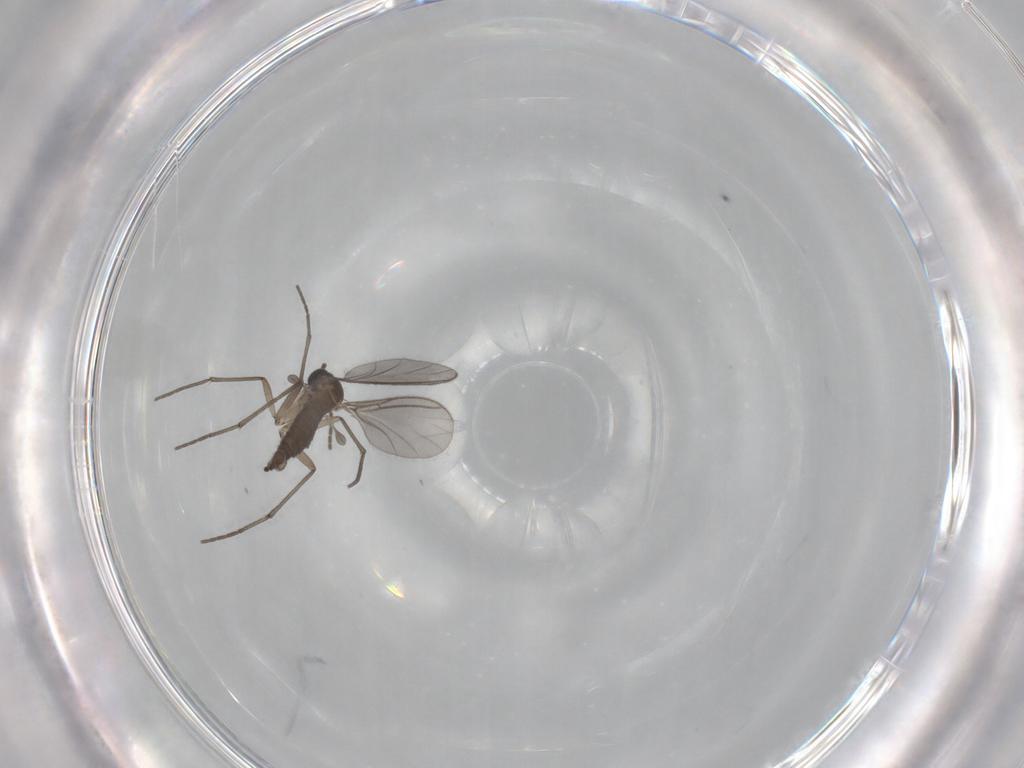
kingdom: Animalia
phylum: Arthropoda
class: Insecta
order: Diptera
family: Sciaridae
